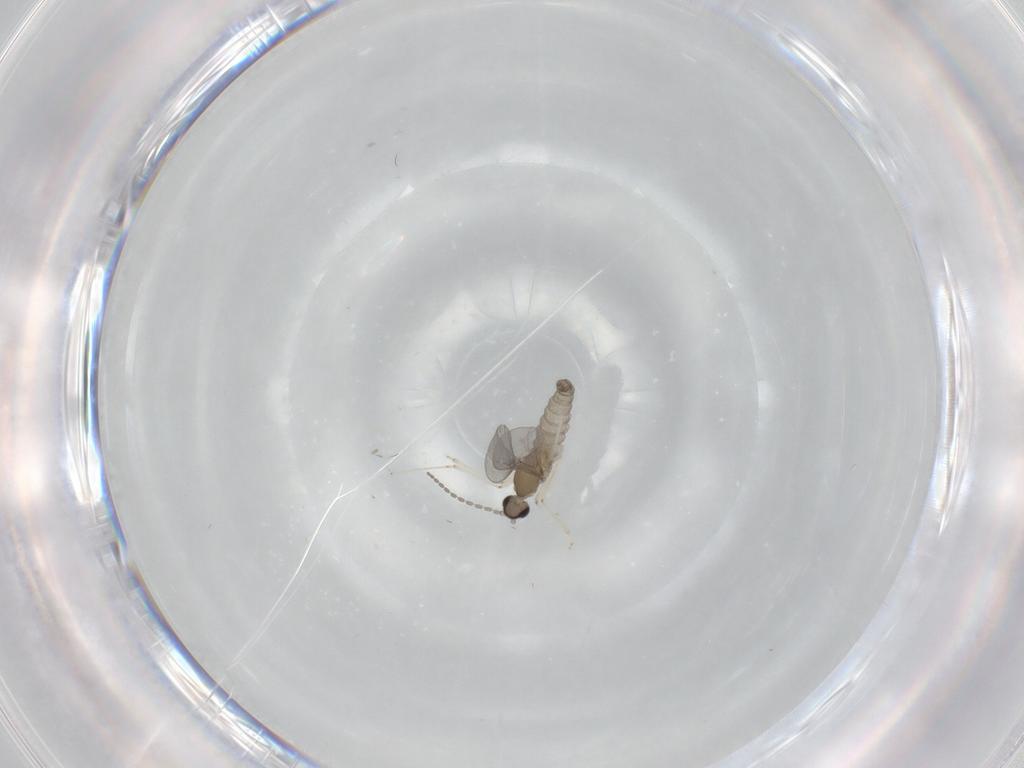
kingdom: Animalia
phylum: Arthropoda
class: Insecta
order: Diptera
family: Cecidomyiidae
